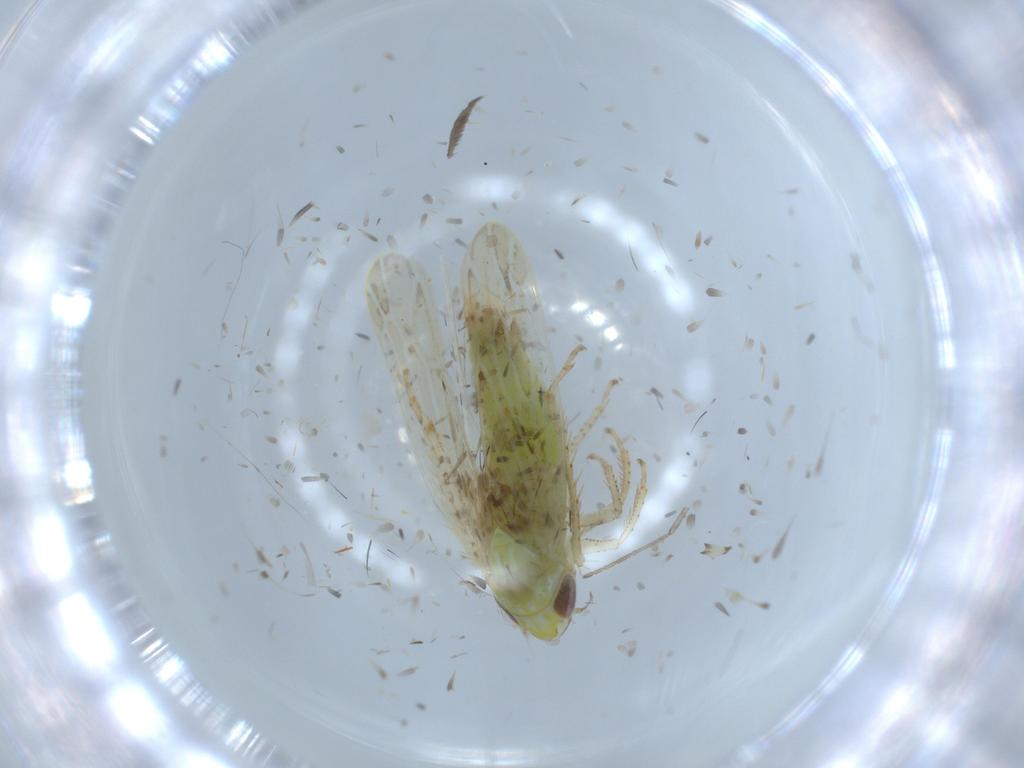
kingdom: Animalia
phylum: Arthropoda
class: Insecta
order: Hemiptera
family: Cicadellidae
